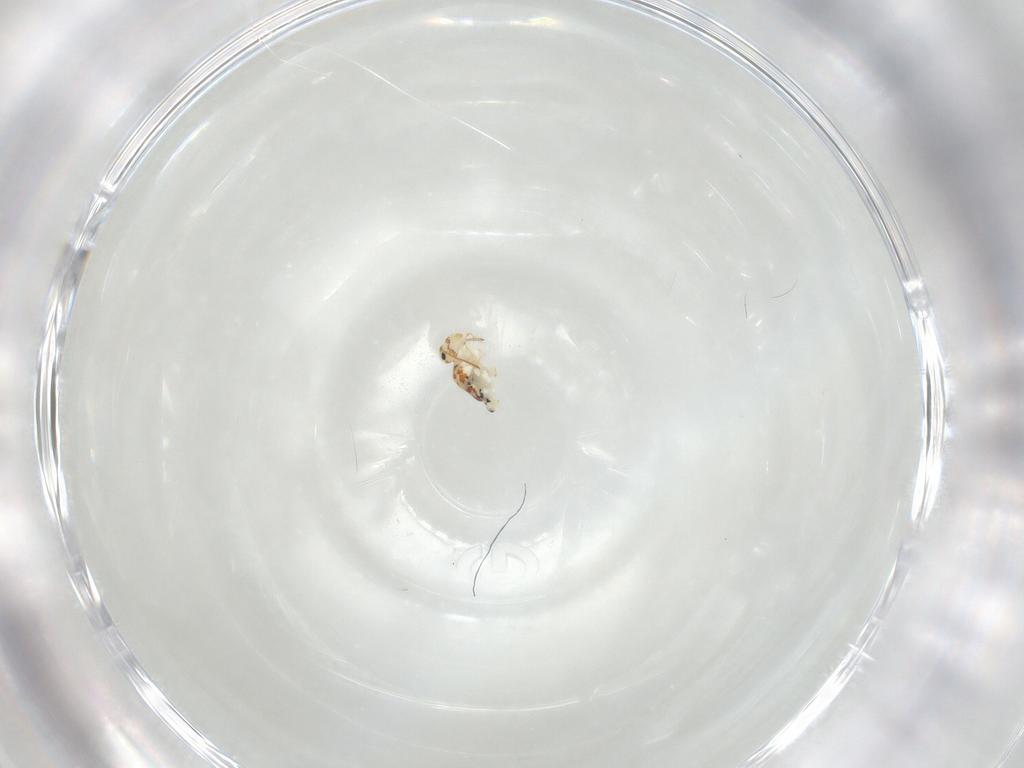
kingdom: Animalia
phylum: Arthropoda
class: Collembola
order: Symphypleona
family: Bourletiellidae
